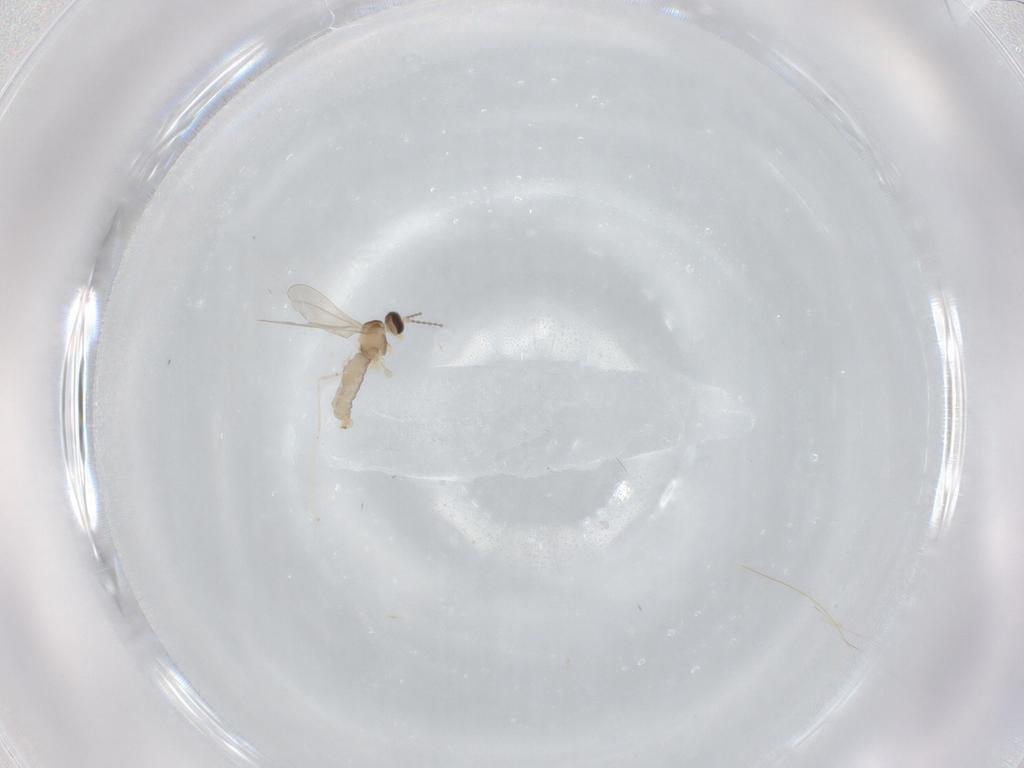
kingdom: Animalia
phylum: Arthropoda
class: Insecta
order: Diptera
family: Cecidomyiidae
